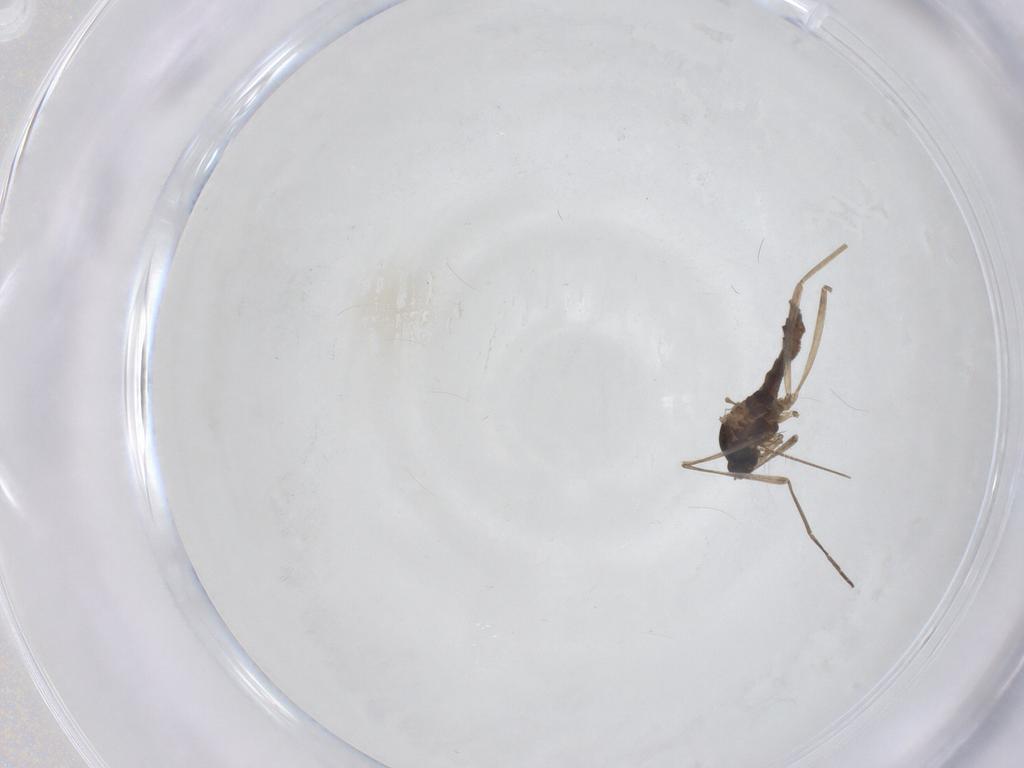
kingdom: Animalia
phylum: Arthropoda
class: Insecta
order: Diptera
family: Cecidomyiidae
